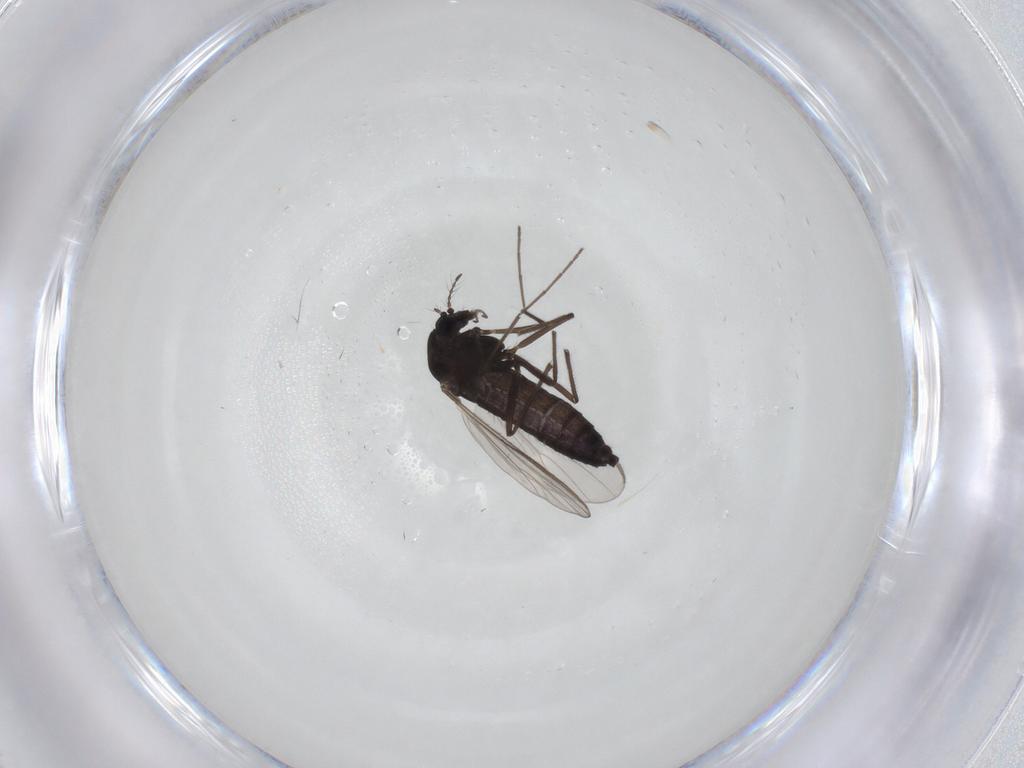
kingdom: Animalia
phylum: Arthropoda
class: Insecta
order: Diptera
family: Chironomidae
